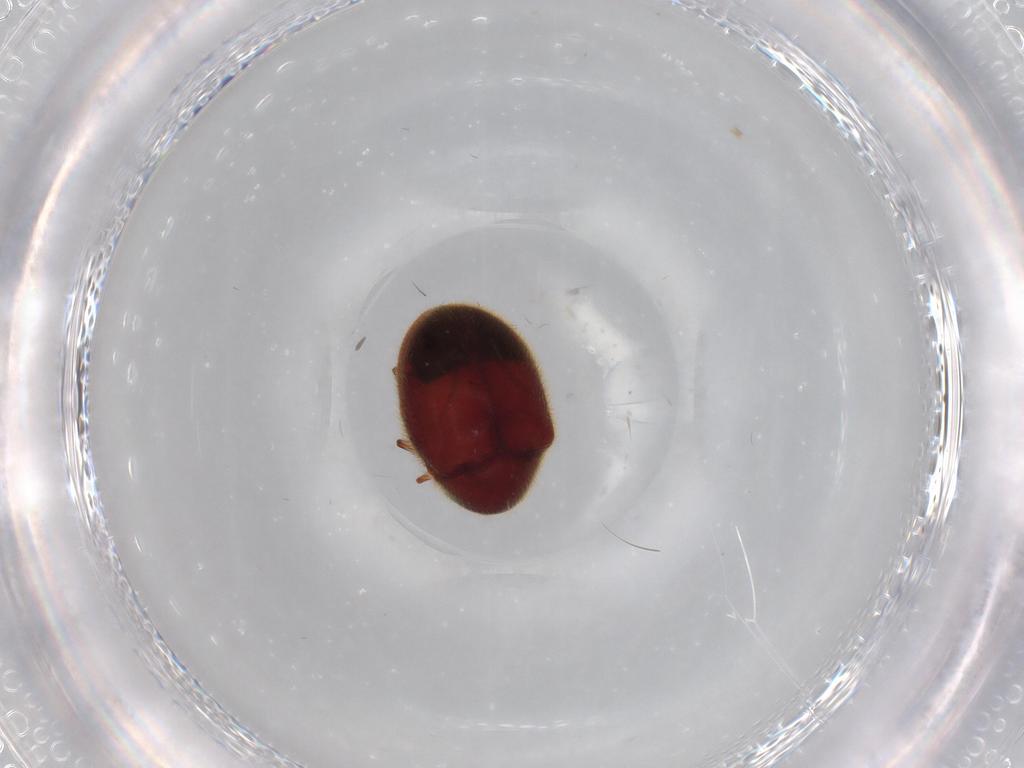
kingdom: Animalia
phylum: Arthropoda
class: Insecta
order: Coleoptera
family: Ptinidae
